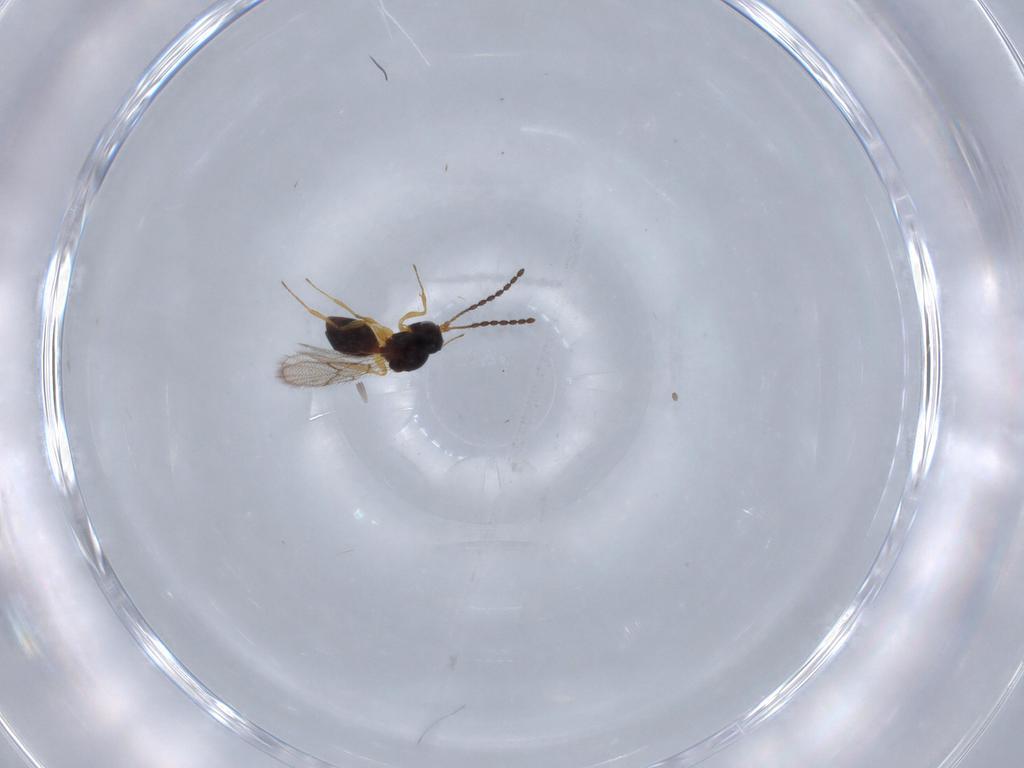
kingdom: Animalia
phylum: Arthropoda
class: Insecta
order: Hymenoptera
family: Figitidae
